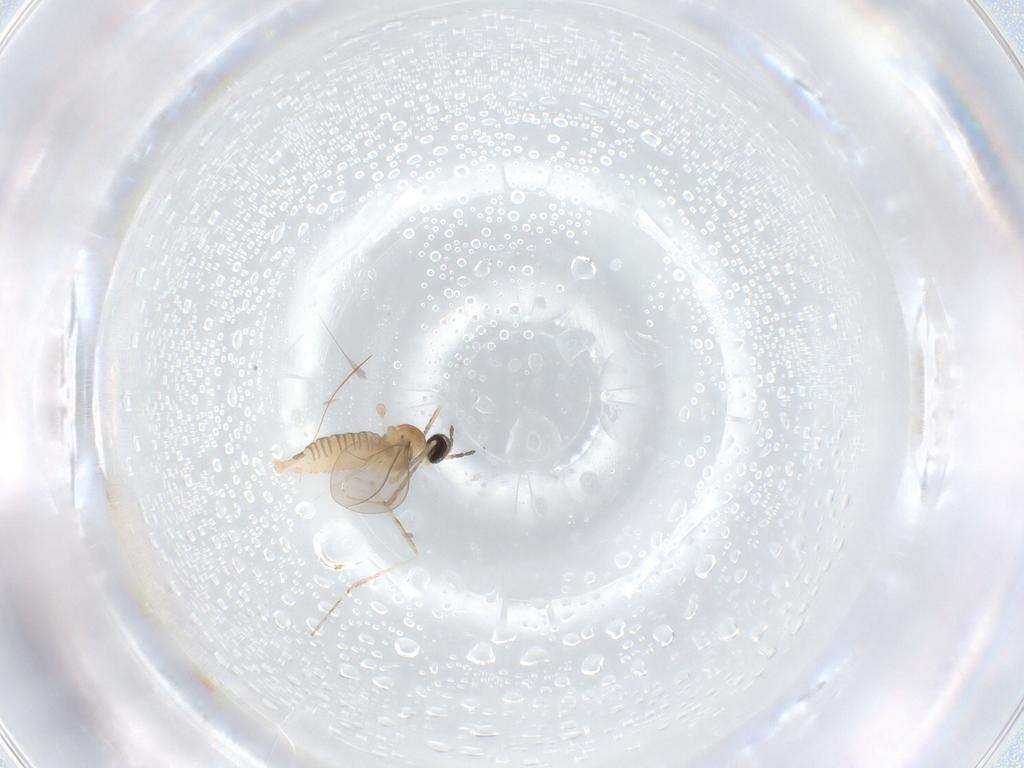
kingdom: Animalia
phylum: Arthropoda
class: Insecta
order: Diptera
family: Cecidomyiidae
